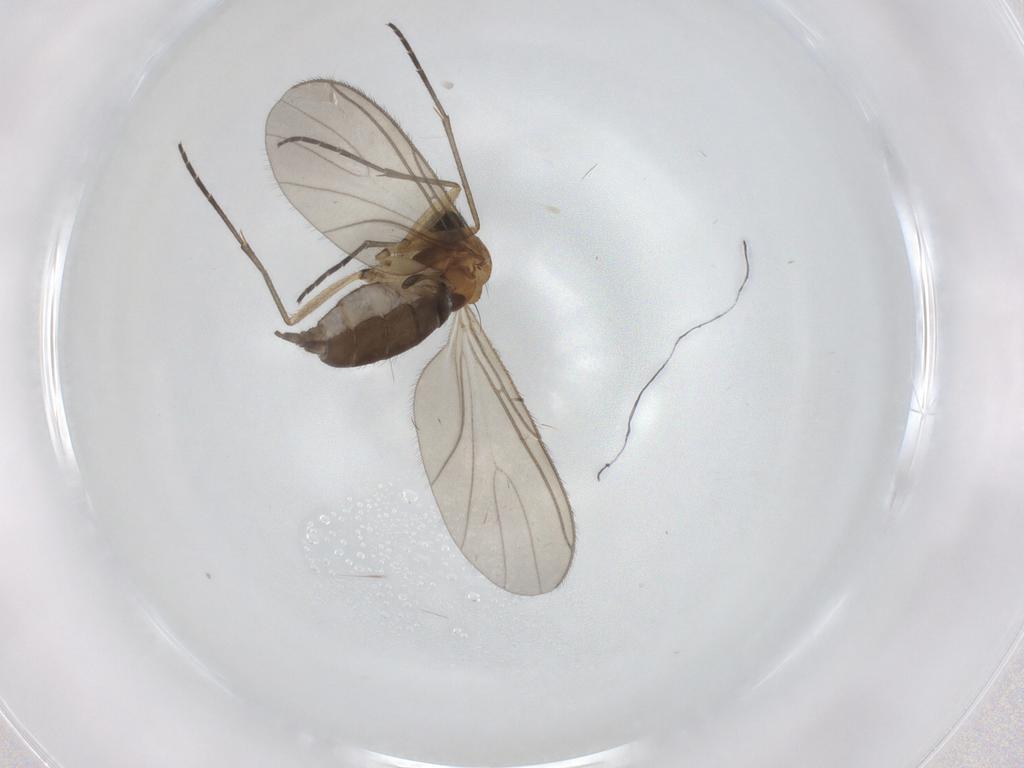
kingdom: Animalia
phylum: Arthropoda
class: Insecta
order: Diptera
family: Sciaridae
